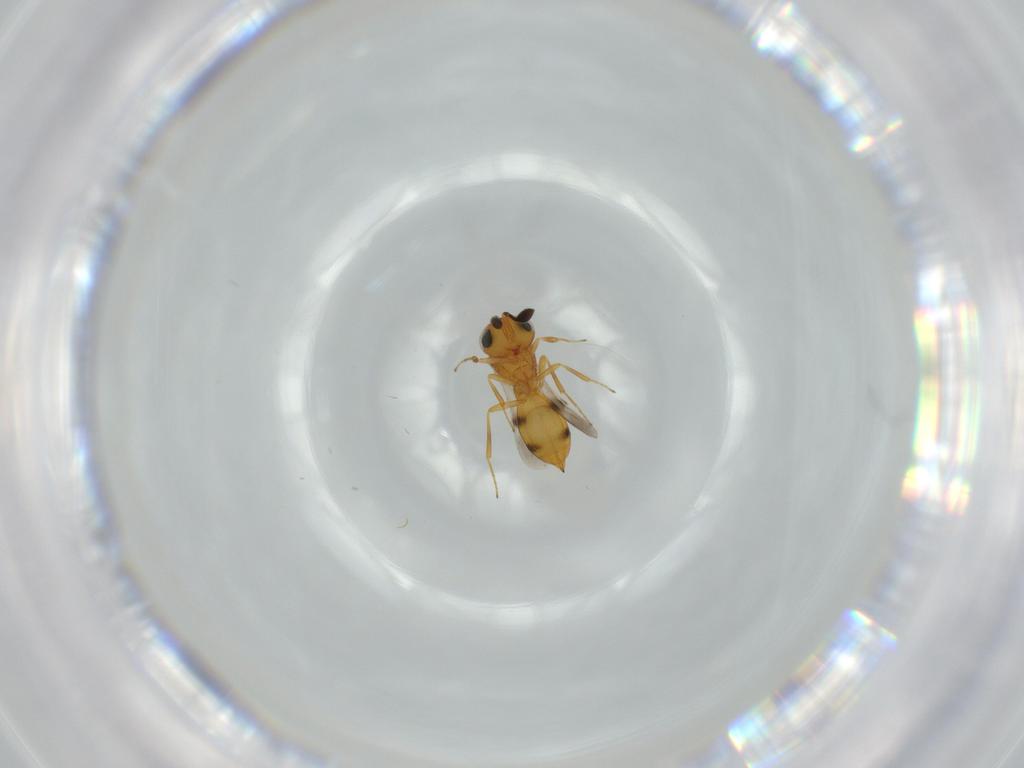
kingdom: Animalia
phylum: Arthropoda
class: Insecta
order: Hymenoptera
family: Scelionidae
